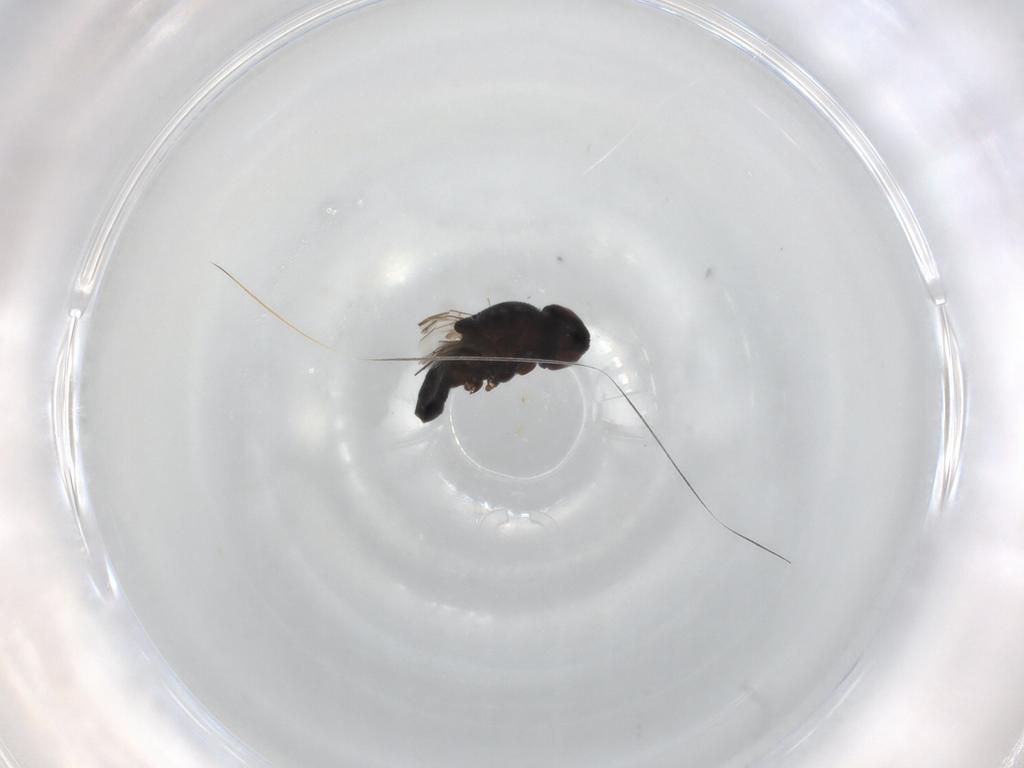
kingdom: Animalia
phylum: Arthropoda
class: Insecta
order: Diptera
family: Chloropidae
